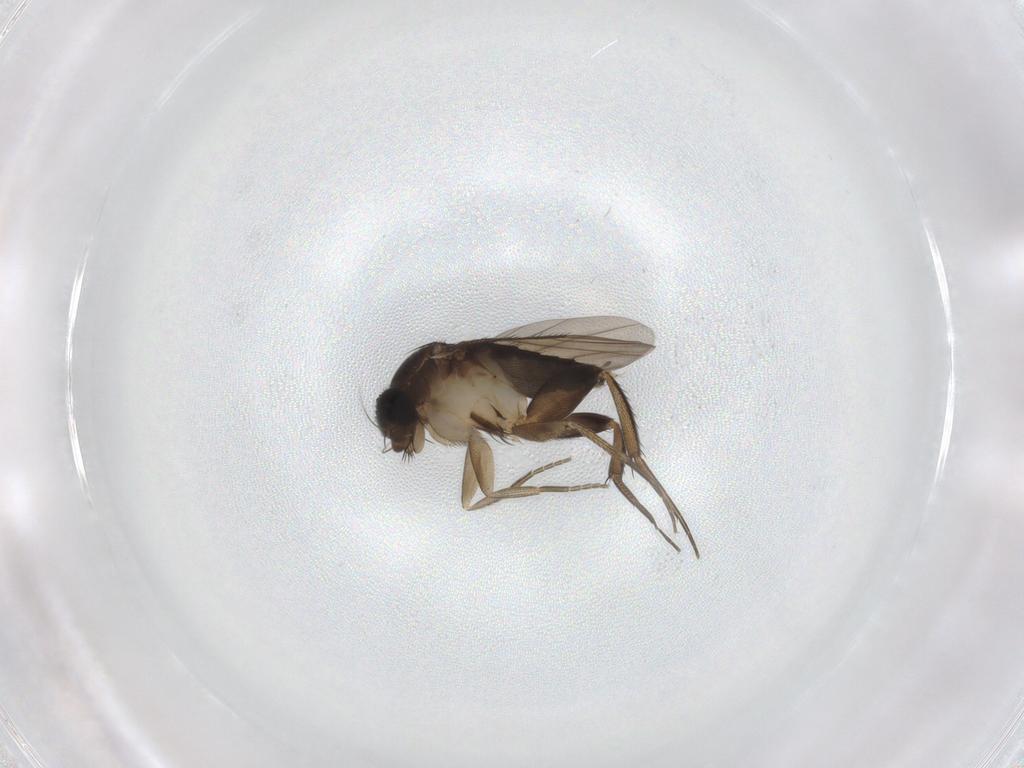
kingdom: Animalia
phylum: Arthropoda
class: Insecta
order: Diptera
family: Phoridae
